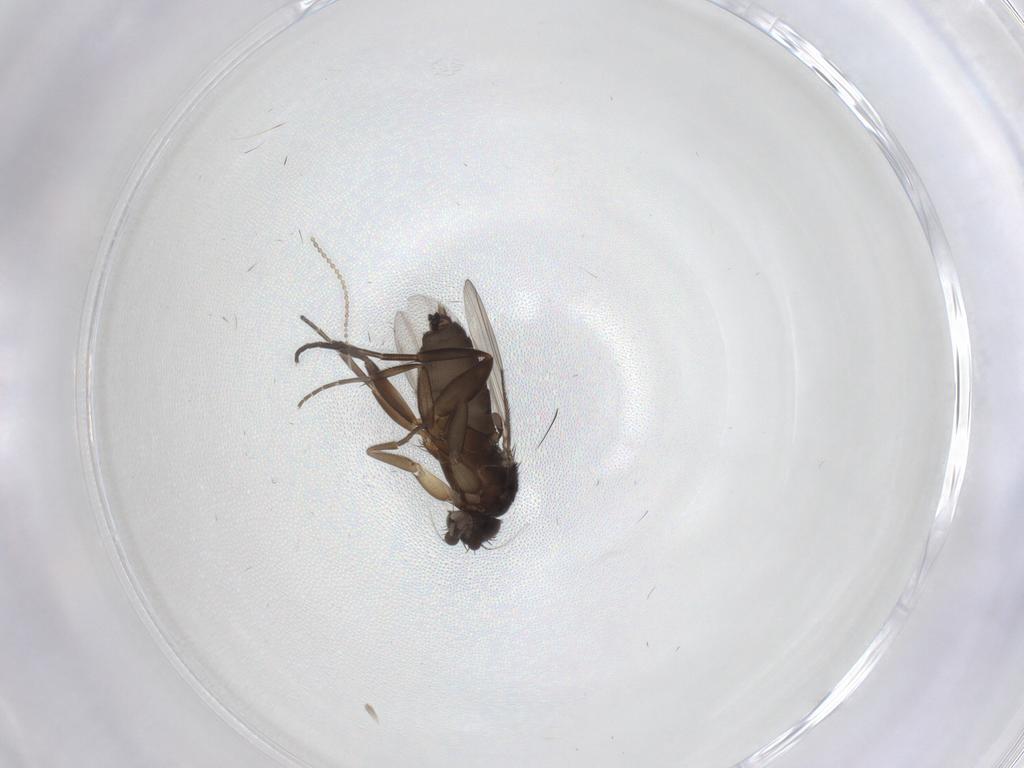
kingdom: Animalia
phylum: Arthropoda
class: Insecta
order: Diptera
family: Phoridae
